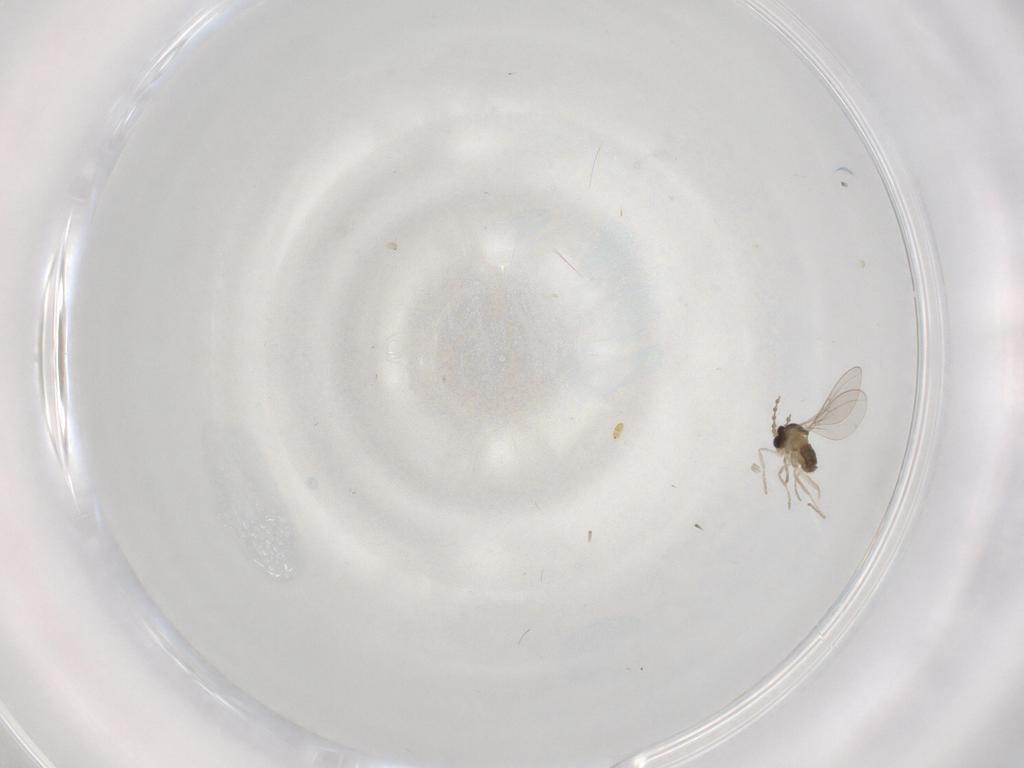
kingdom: Animalia
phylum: Arthropoda
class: Insecta
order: Diptera
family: Cecidomyiidae
